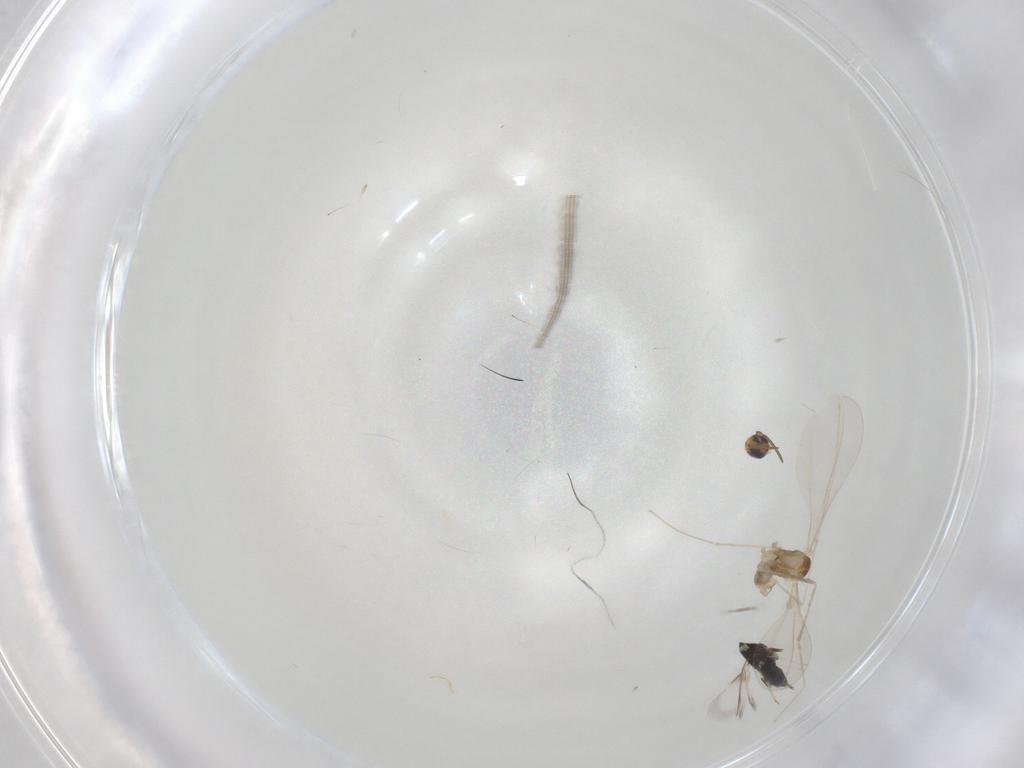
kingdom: Animalia
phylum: Arthropoda
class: Insecta
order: Diptera
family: Cecidomyiidae
